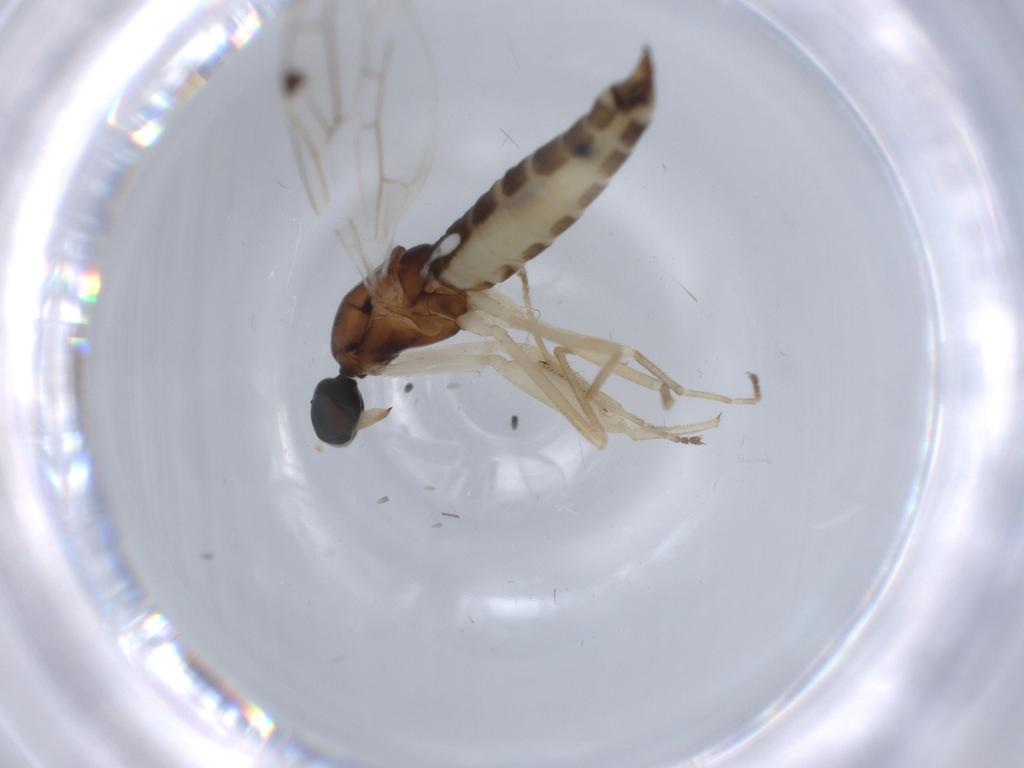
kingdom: Animalia
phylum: Arthropoda
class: Insecta
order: Diptera
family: Empididae
